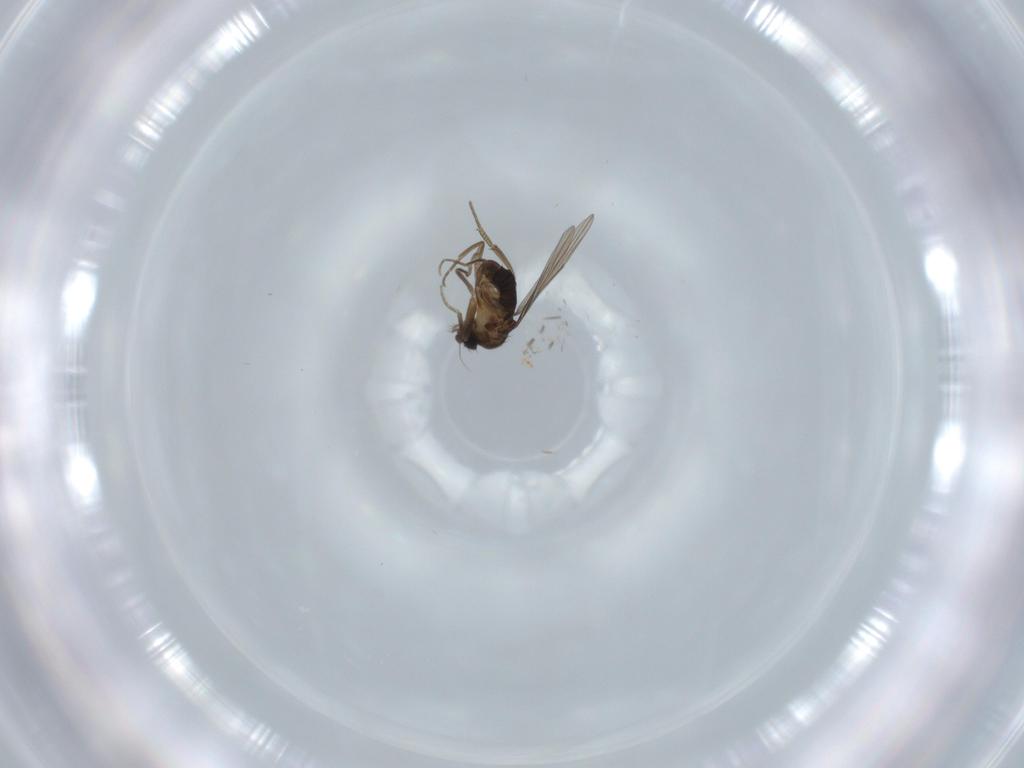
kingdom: Animalia
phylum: Arthropoda
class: Insecta
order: Diptera
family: Phoridae
